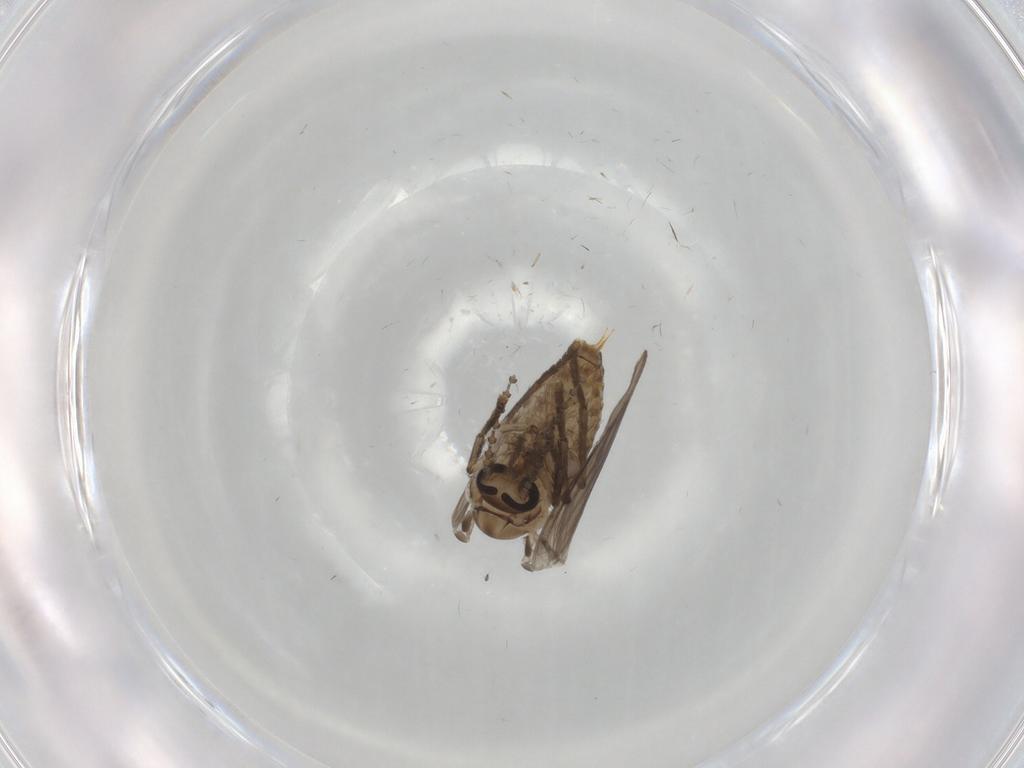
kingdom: Animalia
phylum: Arthropoda
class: Insecta
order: Diptera
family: Psychodidae
